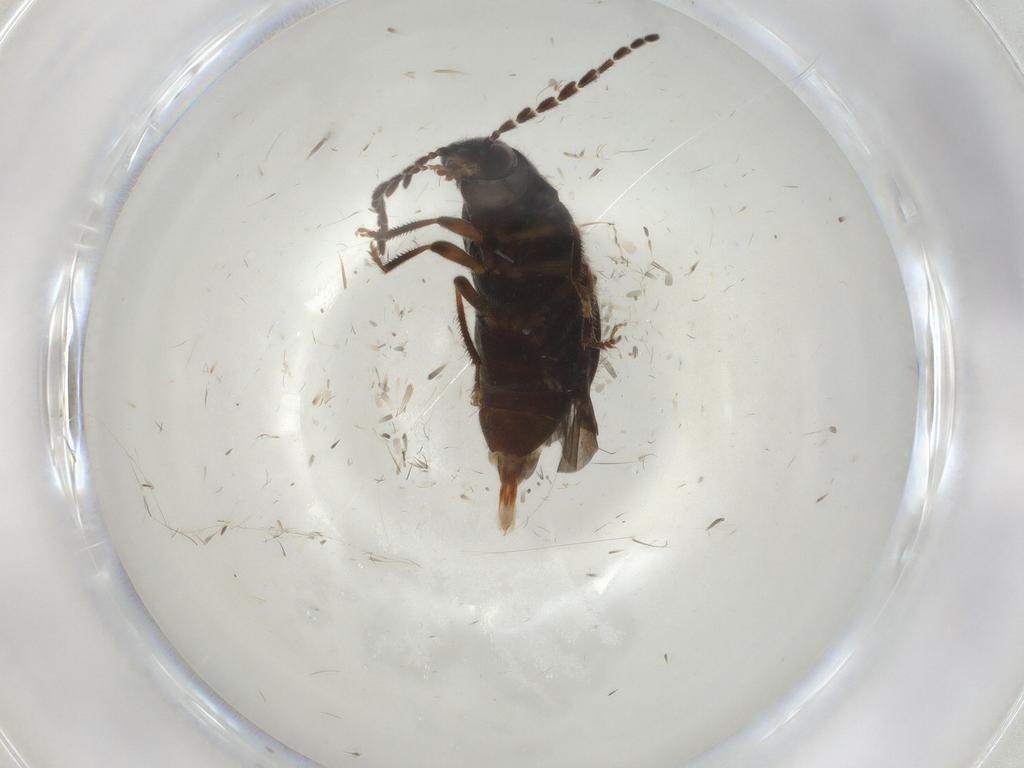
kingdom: Animalia
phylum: Arthropoda
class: Insecta
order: Coleoptera
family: Ptilodactylidae
